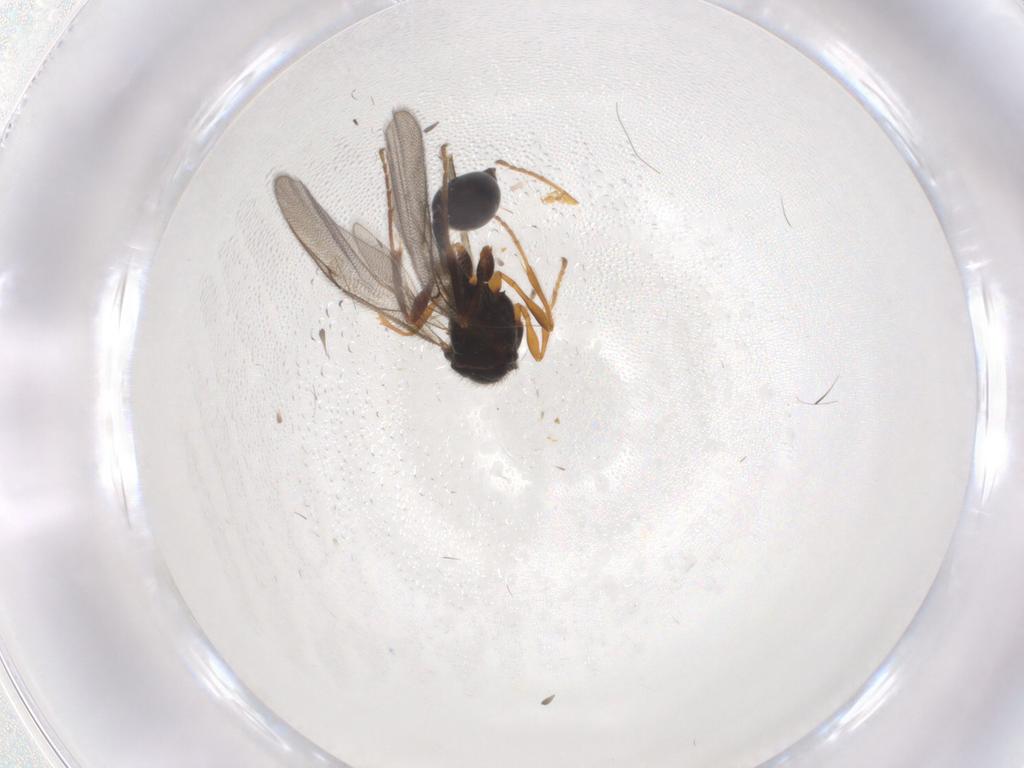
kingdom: Animalia
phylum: Arthropoda
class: Insecta
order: Hymenoptera
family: Diapriidae
